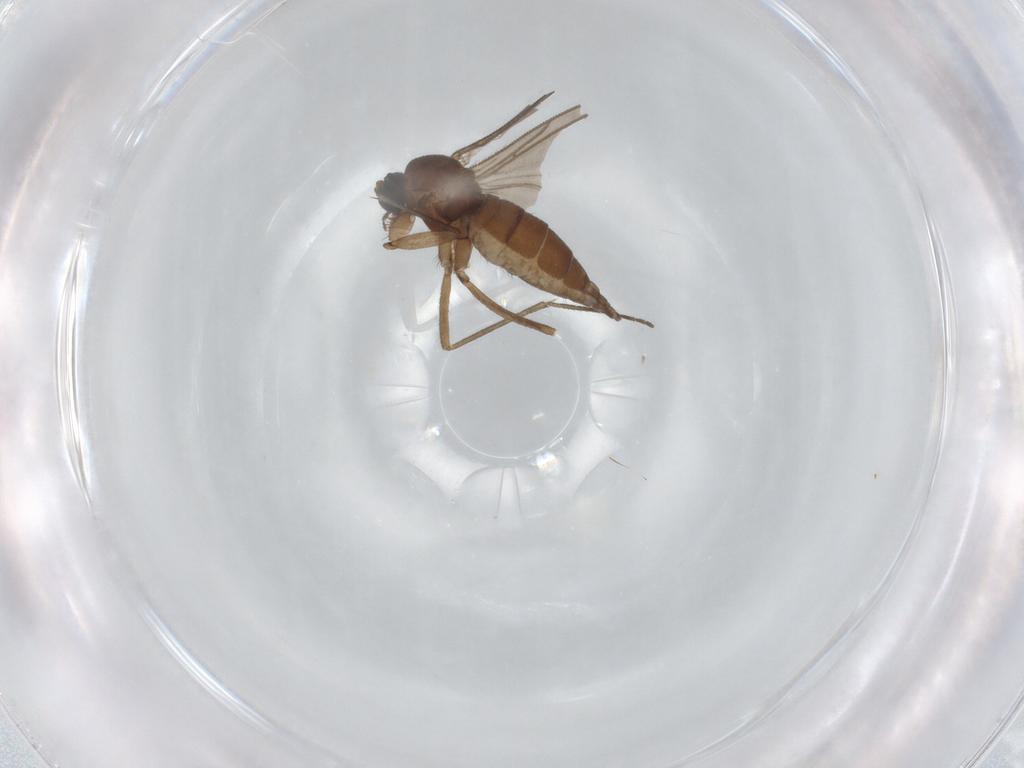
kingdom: Animalia
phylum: Arthropoda
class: Insecta
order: Diptera
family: Sciaridae
